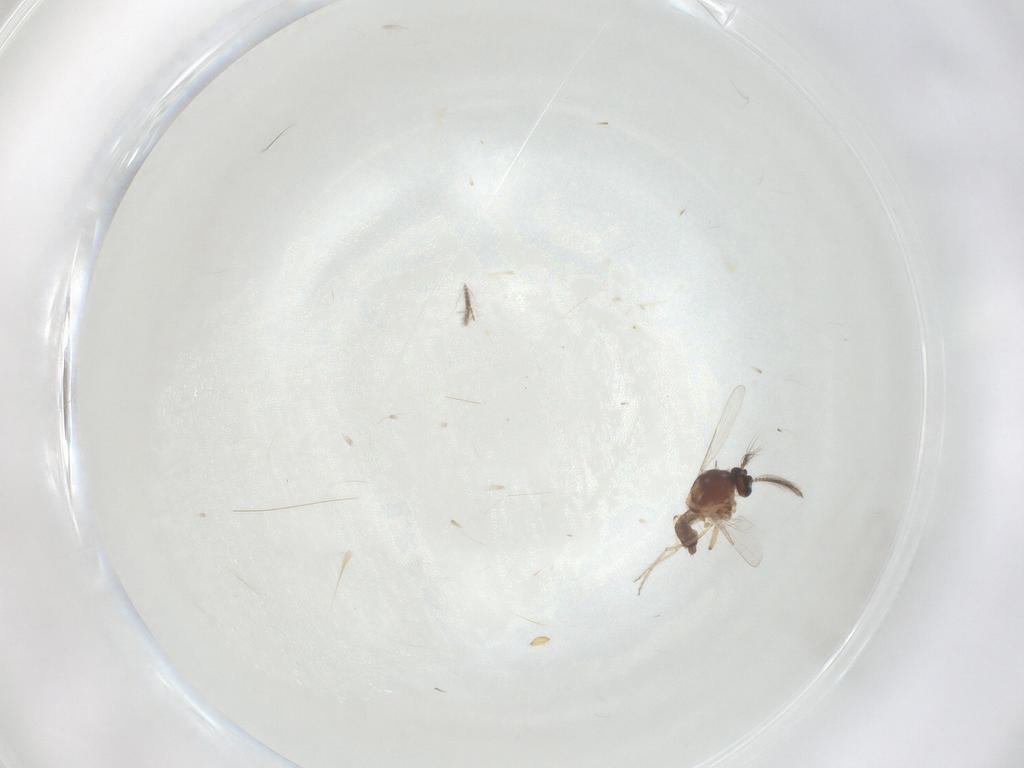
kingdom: Animalia
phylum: Arthropoda
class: Insecta
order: Diptera
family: Ceratopogonidae
